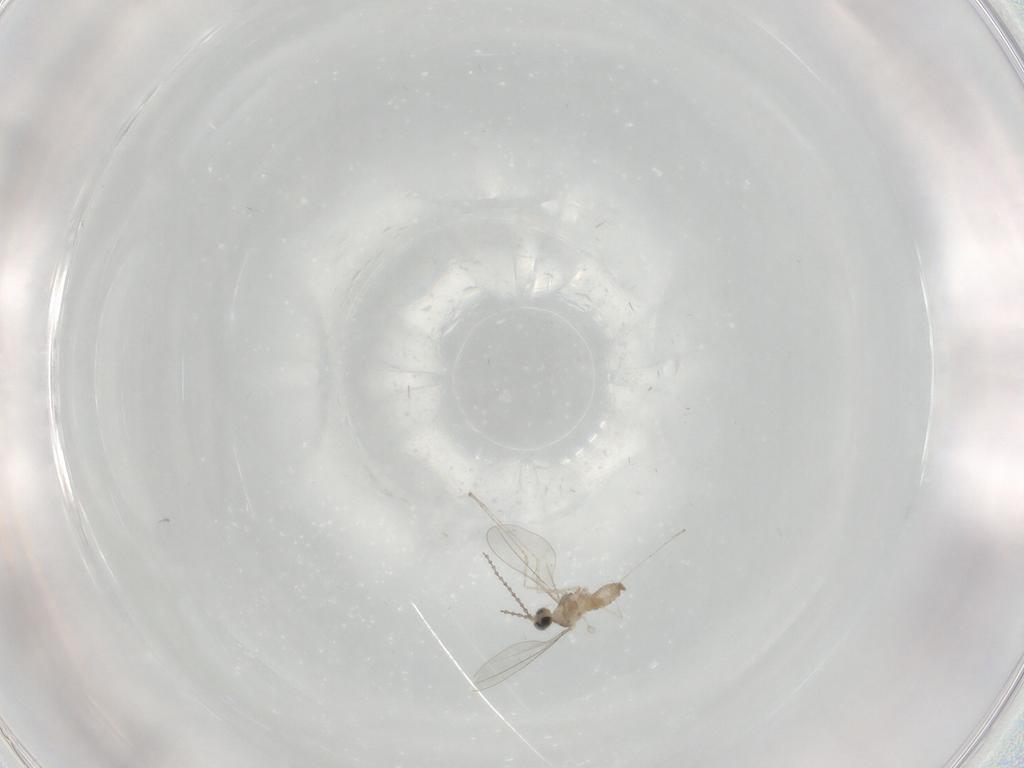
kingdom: Animalia
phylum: Arthropoda
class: Insecta
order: Diptera
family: Cecidomyiidae
